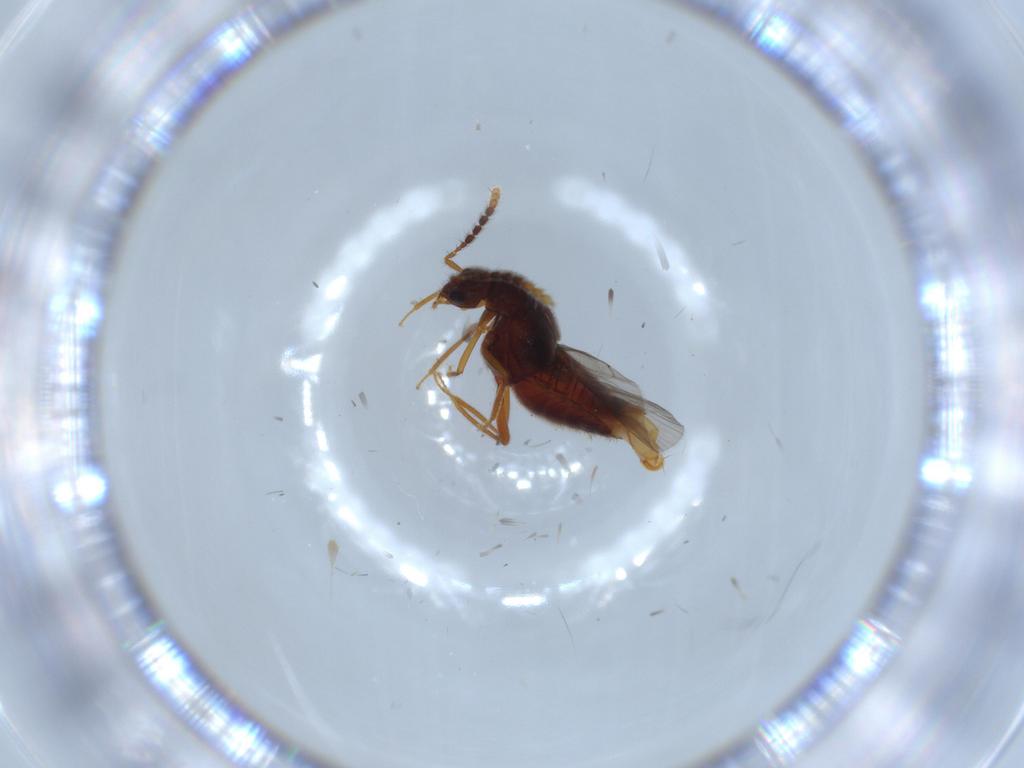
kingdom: Animalia
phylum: Arthropoda
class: Insecta
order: Coleoptera
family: Staphylinidae
